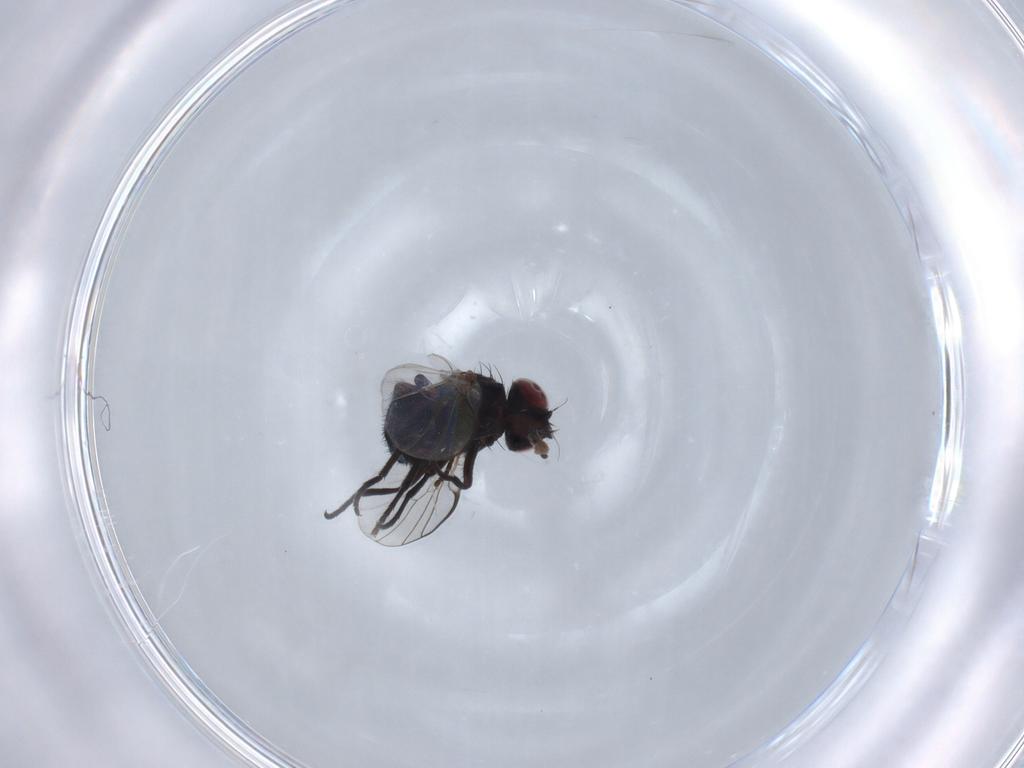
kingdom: Animalia
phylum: Arthropoda
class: Insecta
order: Diptera
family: Agromyzidae
